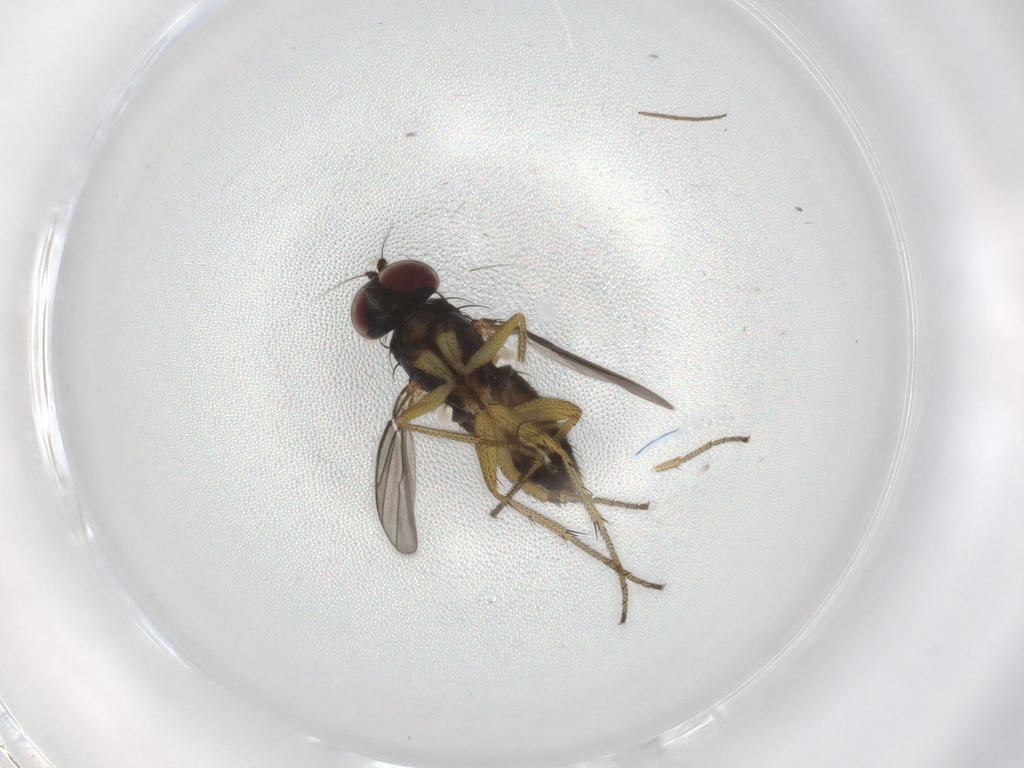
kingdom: Animalia
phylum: Arthropoda
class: Insecta
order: Diptera
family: Dolichopodidae
